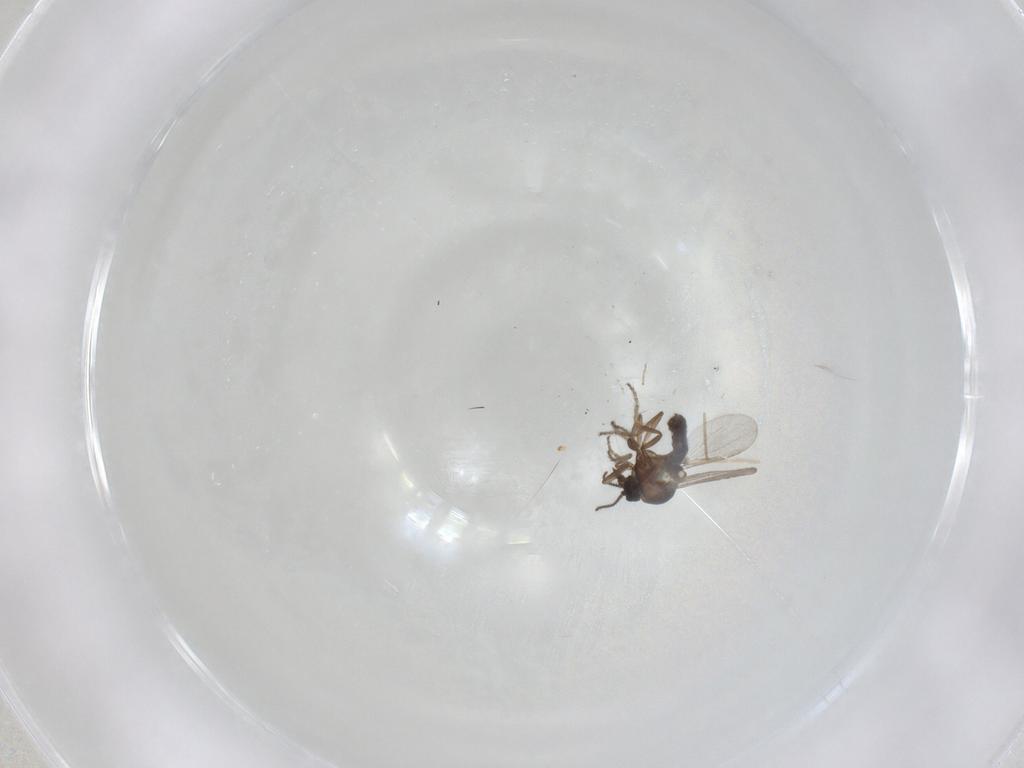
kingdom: Animalia
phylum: Arthropoda
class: Insecta
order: Diptera
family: Ceratopogonidae
